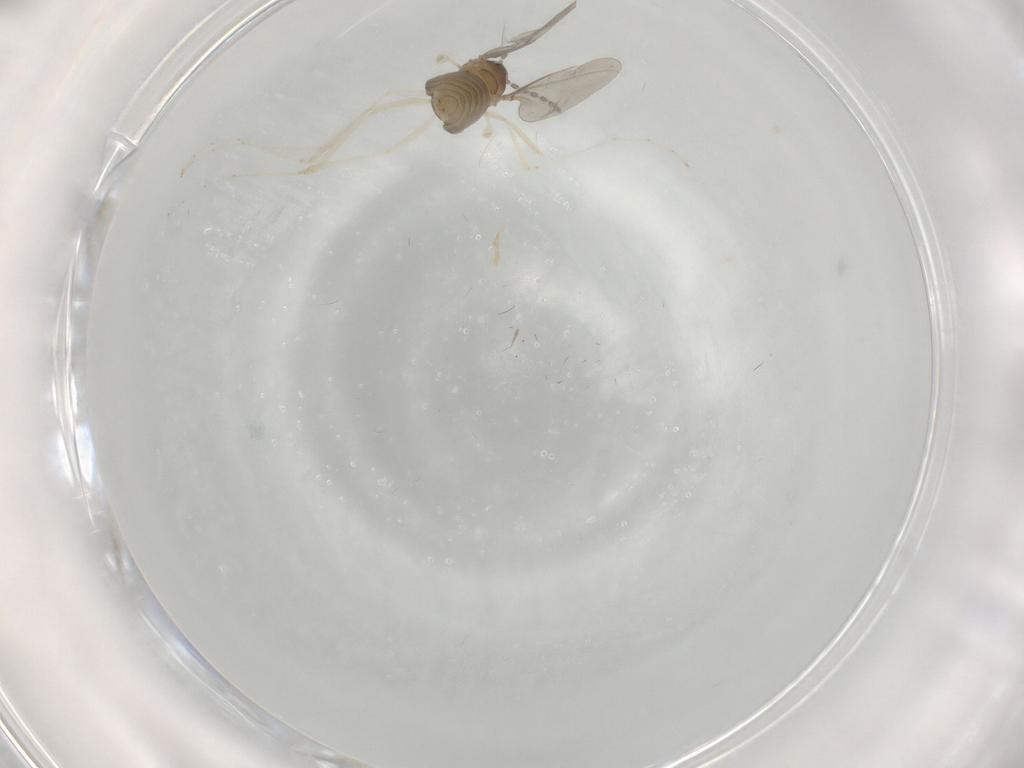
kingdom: Animalia
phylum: Arthropoda
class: Insecta
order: Diptera
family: Cecidomyiidae
